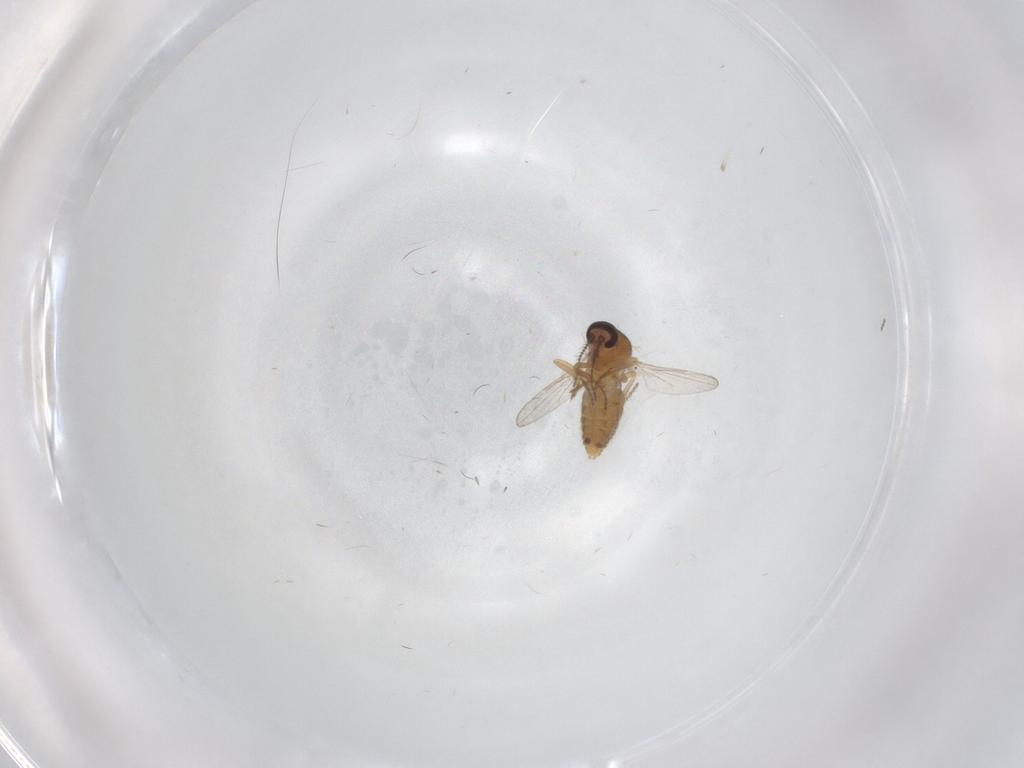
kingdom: Animalia
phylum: Arthropoda
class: Insecta
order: Diptera
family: Ceratopogonidae
